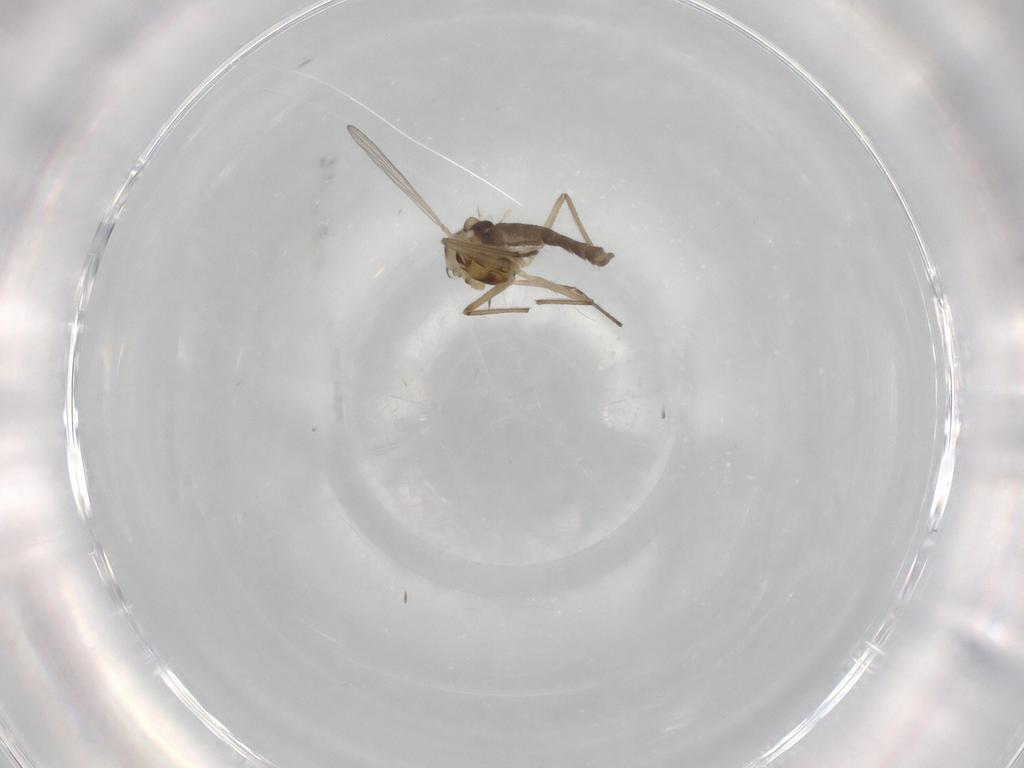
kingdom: Animalia
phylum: Arthropoda
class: Insecta
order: Diptera
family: Chironomidae
